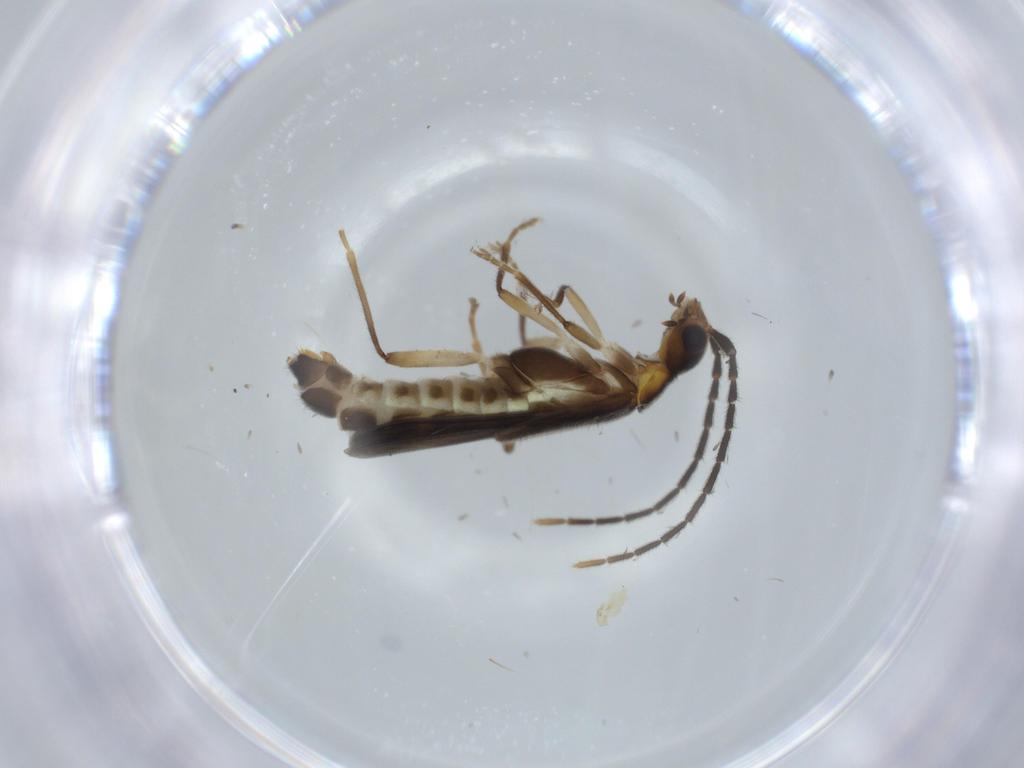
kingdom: Animalia
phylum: Arthropoda
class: Insecta
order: Coleoptera
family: Cantharidae
